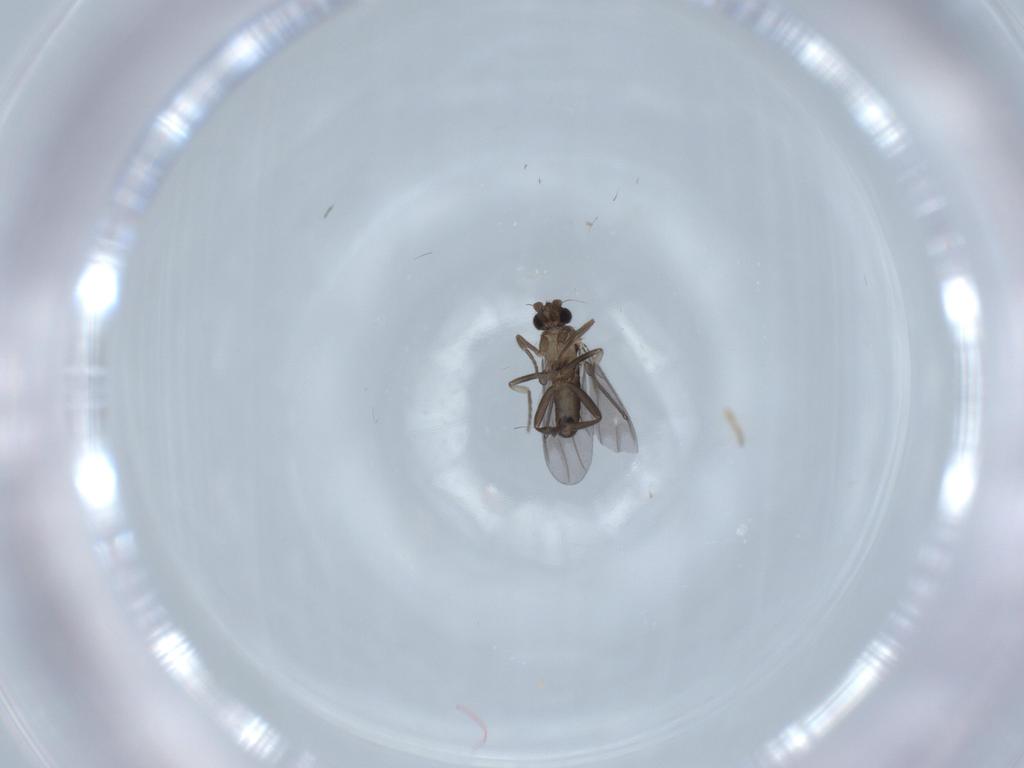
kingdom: Animalia
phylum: Arthropoda
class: Insecta
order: Diptera
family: Phoridae
